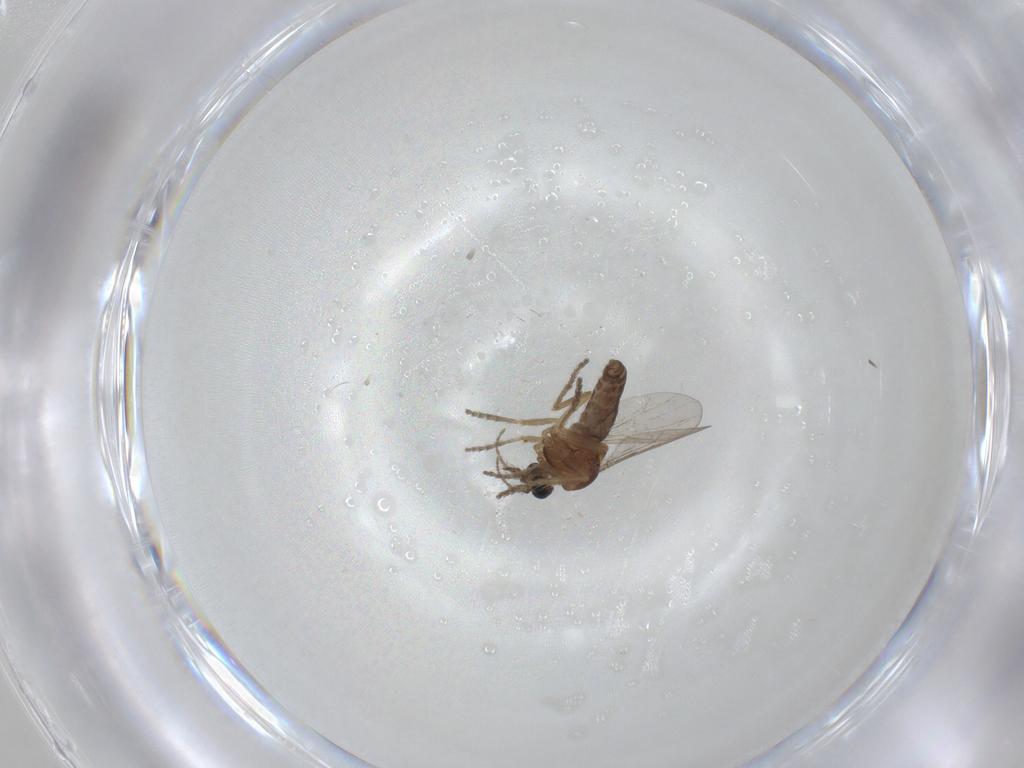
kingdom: Animalia
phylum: Arthropoda
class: Insecta
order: Diptera
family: Ceratopogonidae
